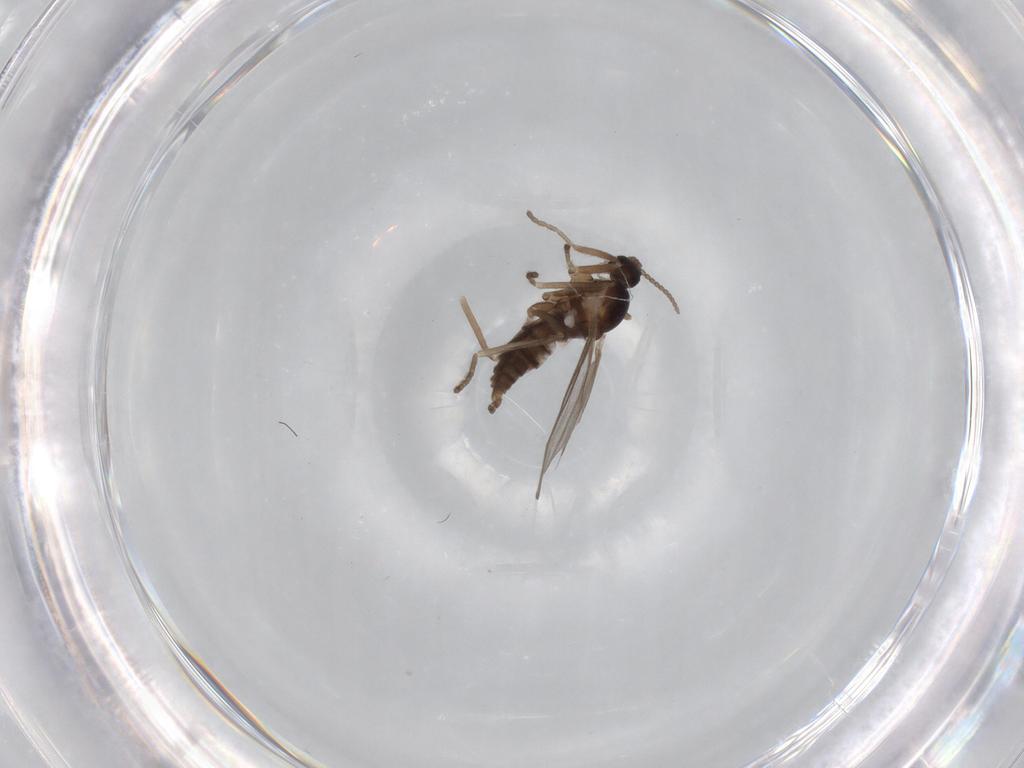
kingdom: Animalia
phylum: Arthropoda
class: Insecta
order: Diptera
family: Cecidomyiidae
